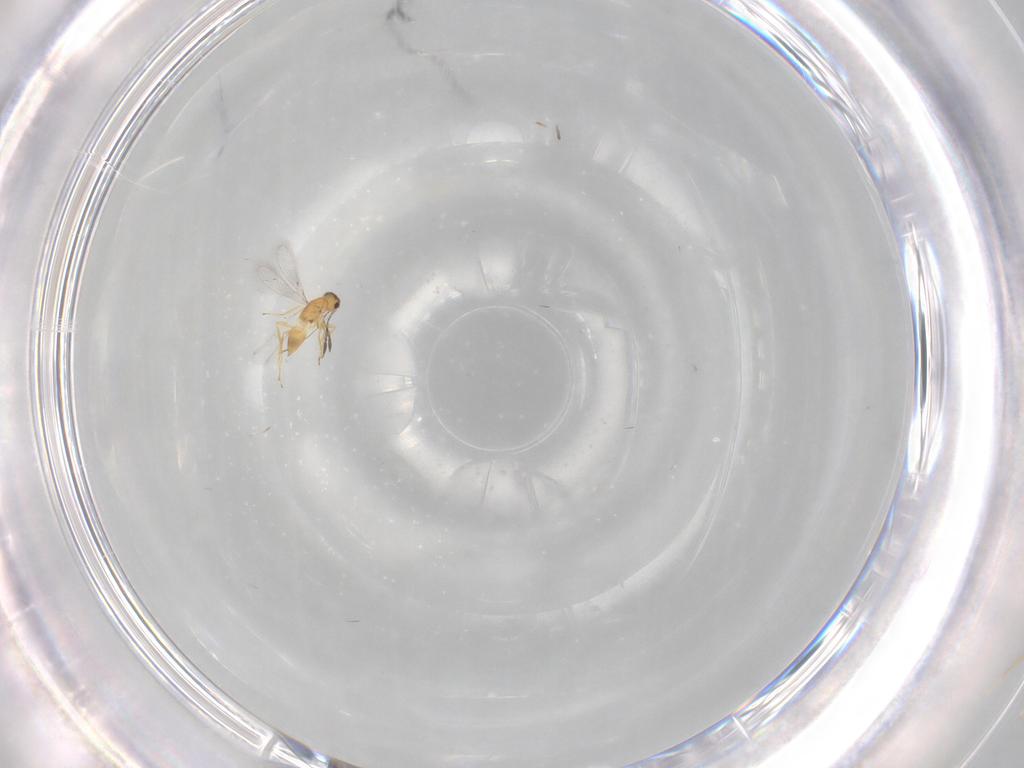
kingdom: Animalia
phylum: Arthropoda
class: Insecta
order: Hymenoptera
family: Mymaridae
